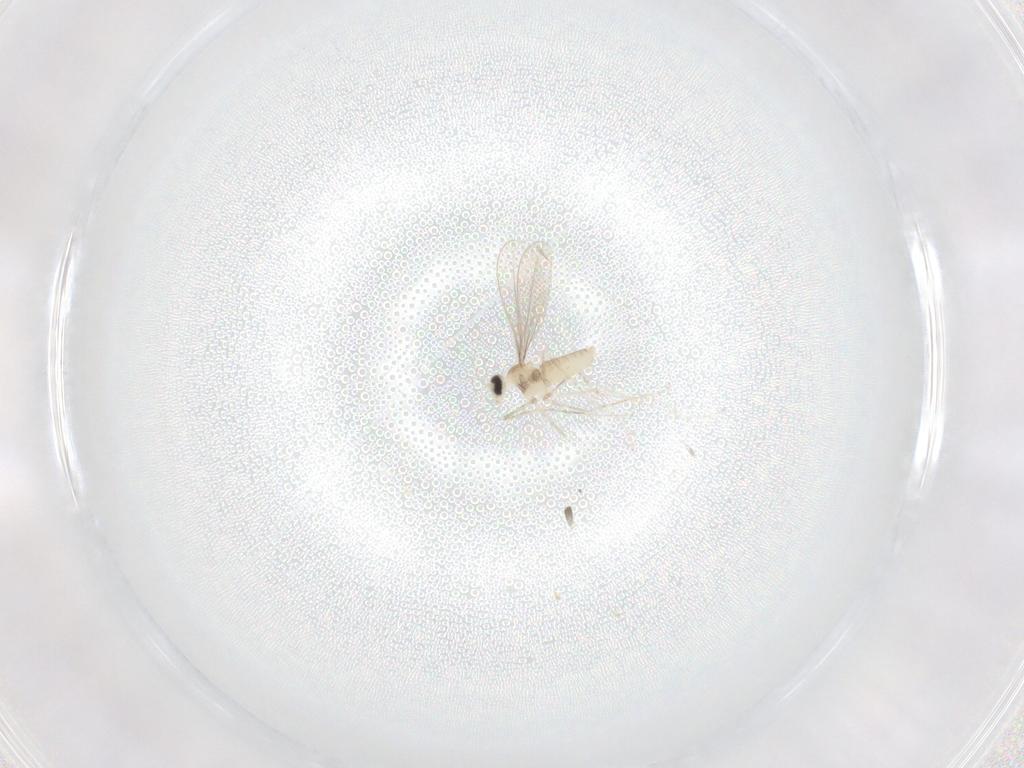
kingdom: Animalia
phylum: Arthropoda
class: Insecta
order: Diptera
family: Cecidomyiidae
